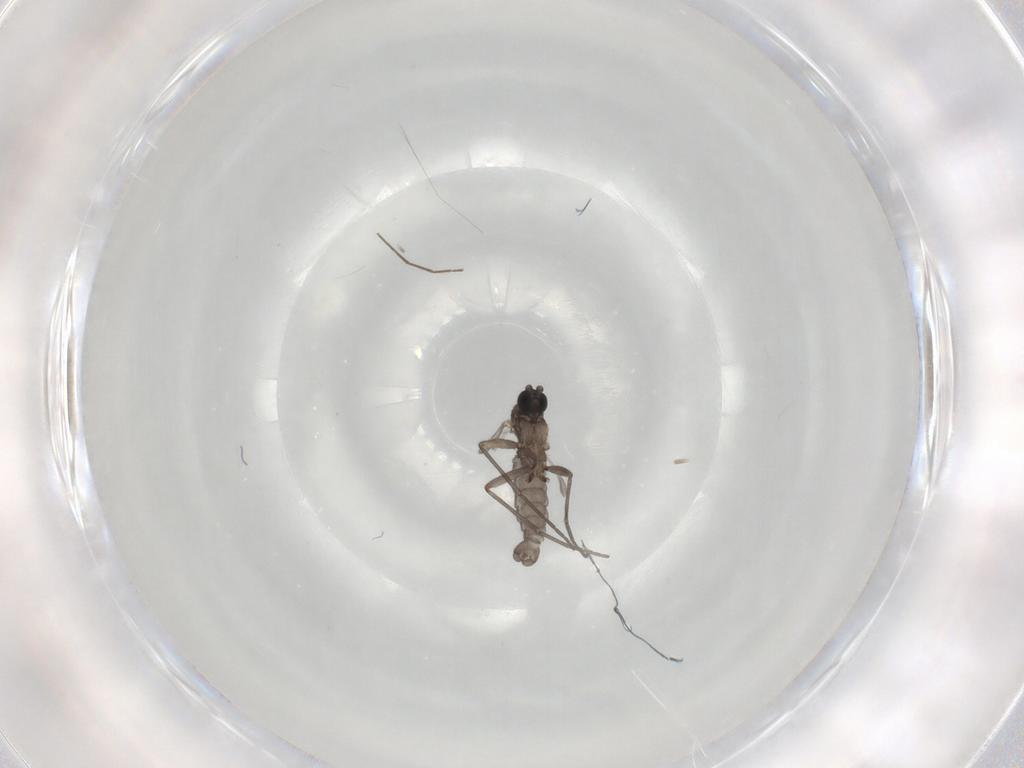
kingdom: Animalia
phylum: Arthropoda
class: Insecta
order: Diptera
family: Sciaridae
